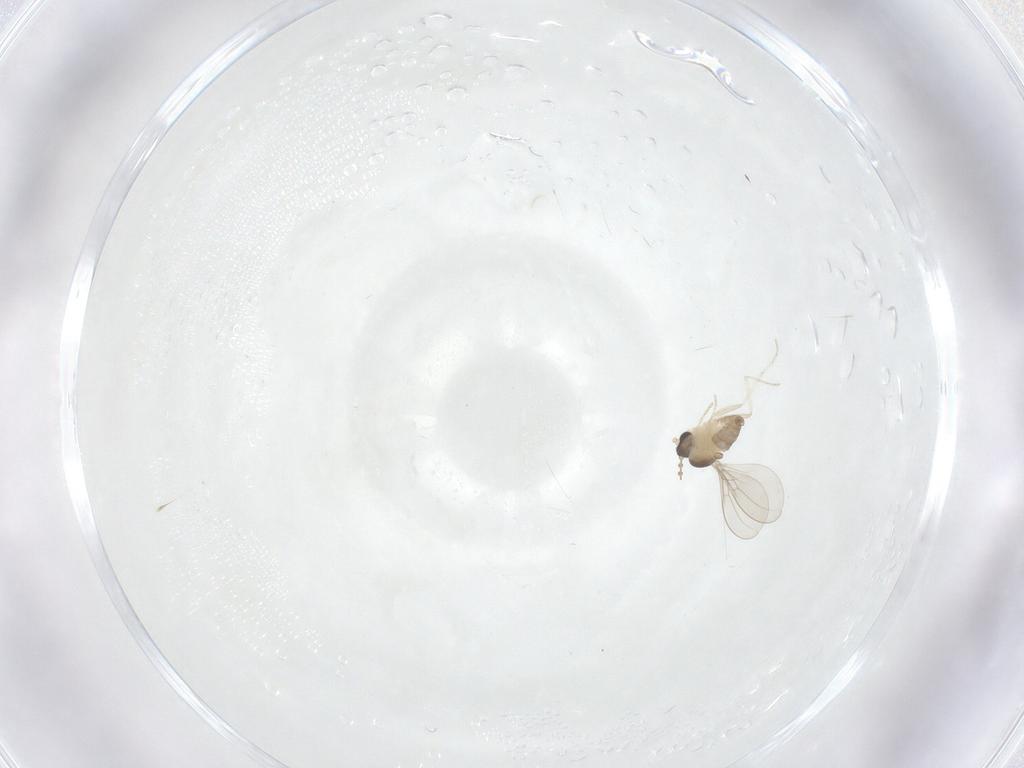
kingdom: Animalia
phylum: Arthropoda
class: Insecta
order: Diptera
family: Cecidomyiidae
